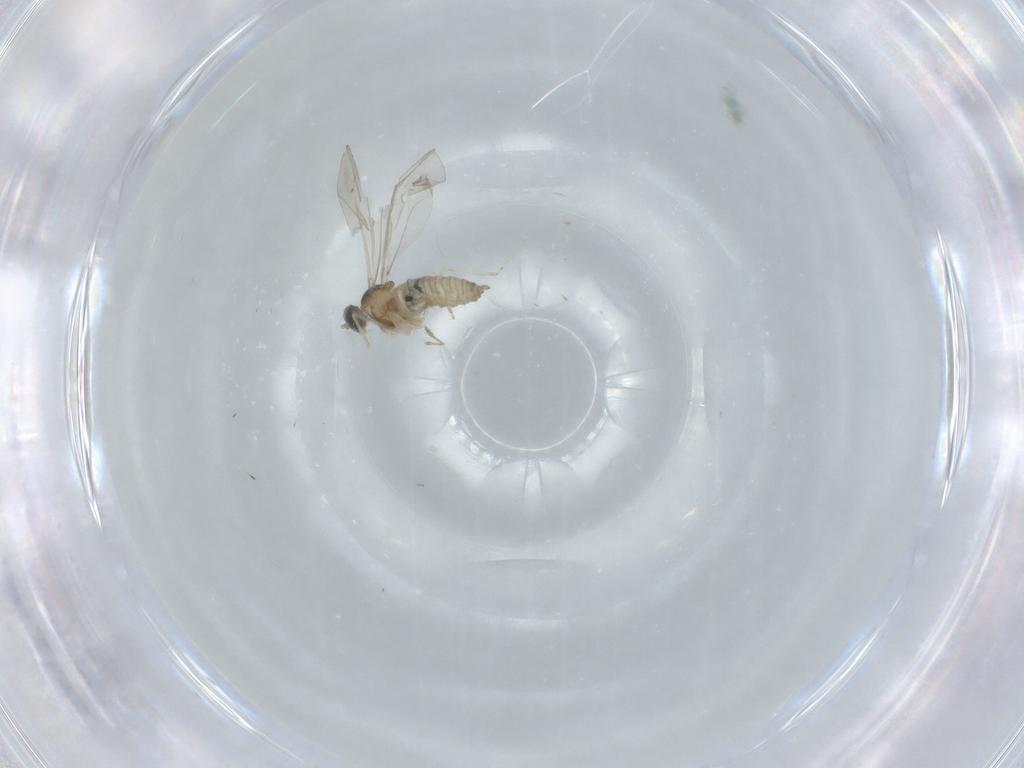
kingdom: Animalia
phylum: Arthropoda
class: Insecta
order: Diptera
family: Cecidomyiidae
